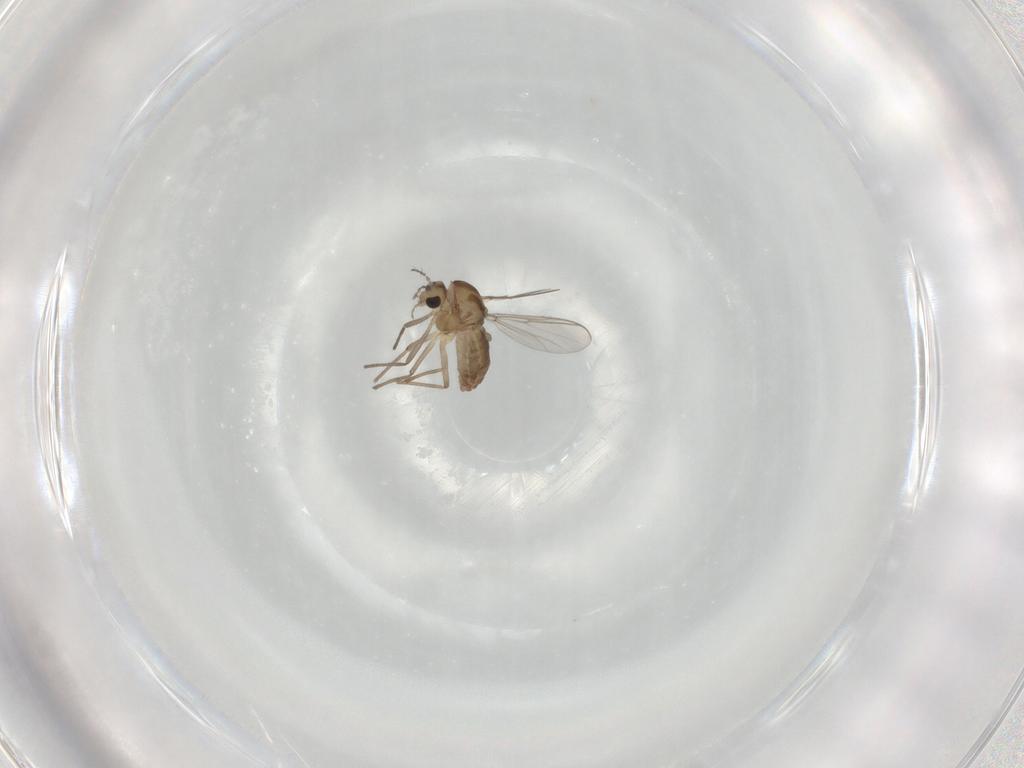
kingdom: Animalia
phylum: Arthropoda
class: Insecta
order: Diptera
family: Chironomidae
